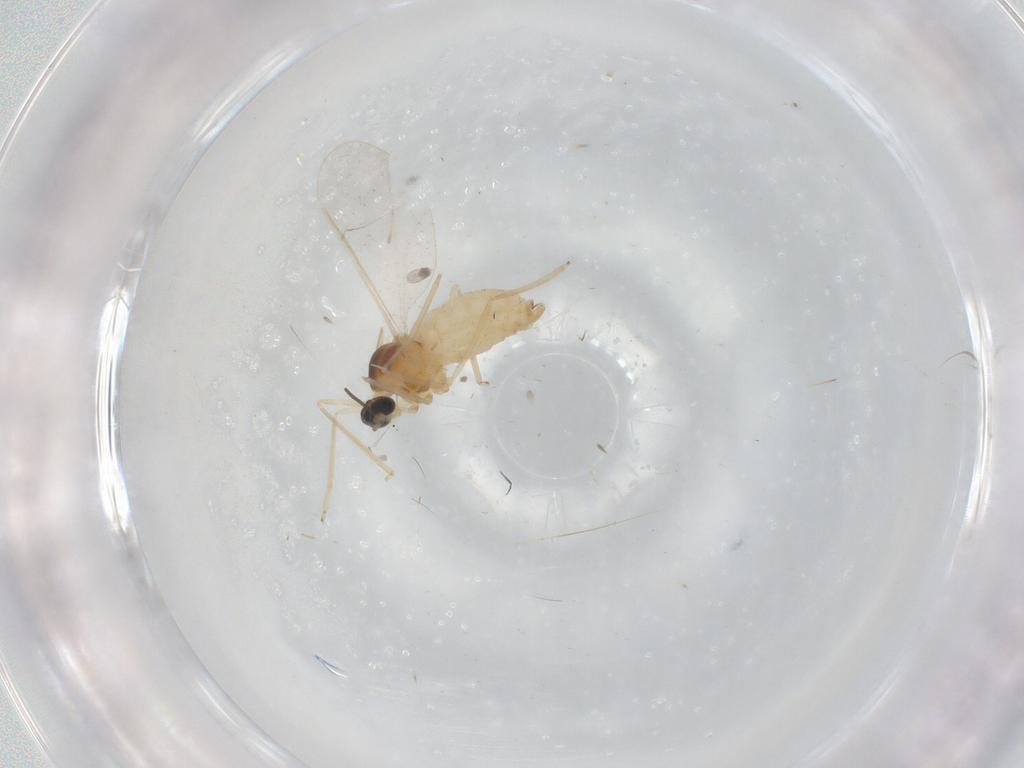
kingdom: Animalia
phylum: Arthropoda
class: Insecta
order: Diptera
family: Cecidomyiidae
